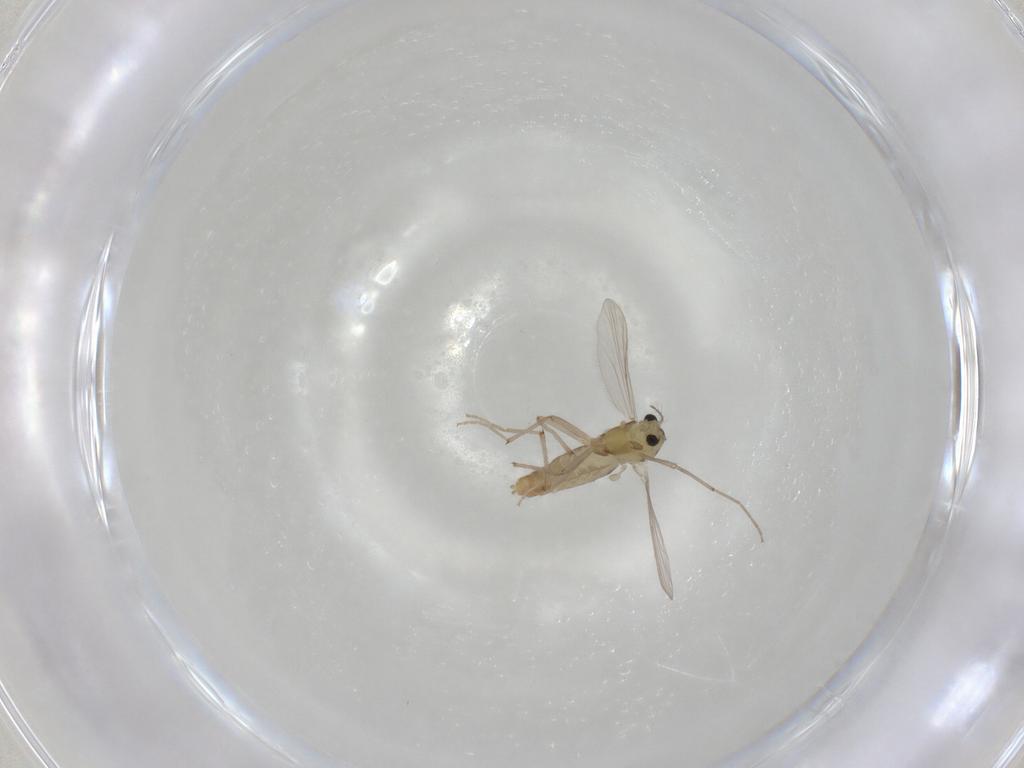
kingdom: Animalia
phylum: Arthropoda
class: Insecta
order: Diptera
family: Chironomidae
